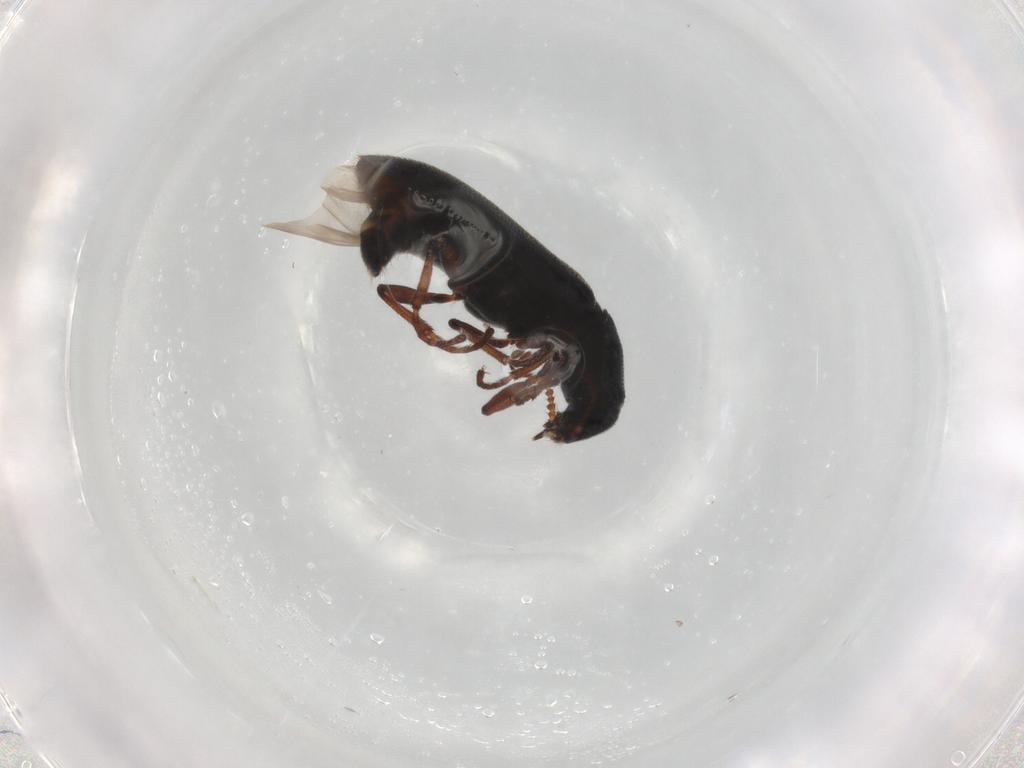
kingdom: Animalia
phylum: Arthropoda
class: Insecta
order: Coleoptera
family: Melyridae
